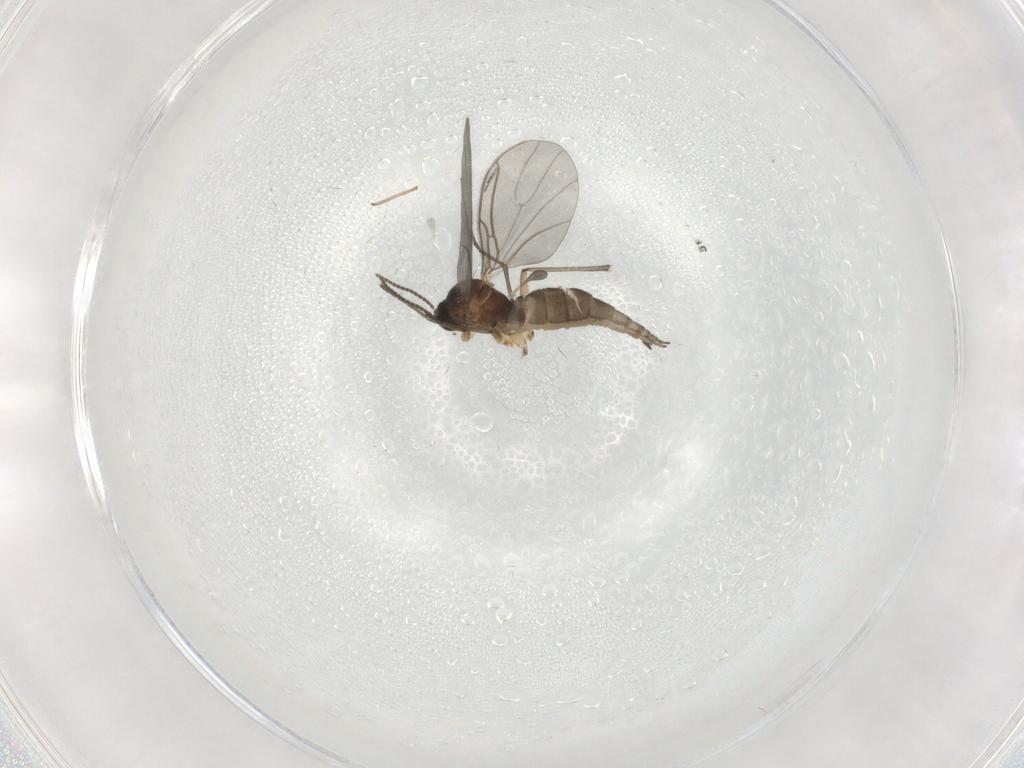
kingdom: Animalia
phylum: Arthropoda
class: Insecta
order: Diptera
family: Sciaridae
